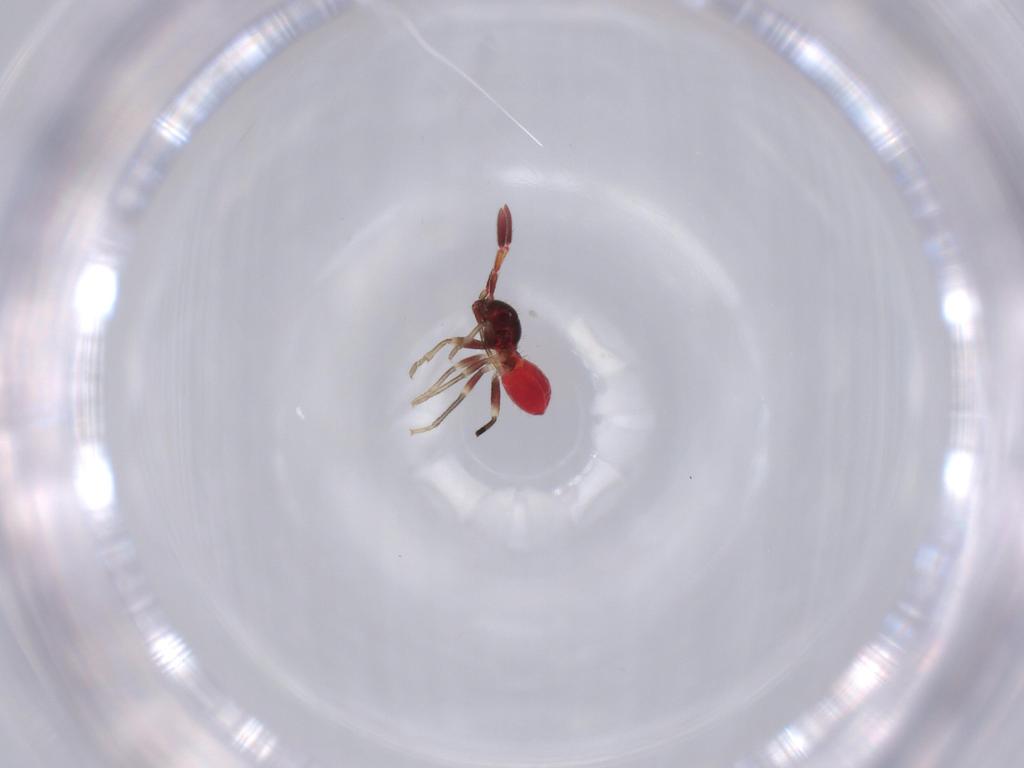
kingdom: Animalia
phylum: Arthropoda
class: Insecta
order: Hemiptera
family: Rhyparochromidae
